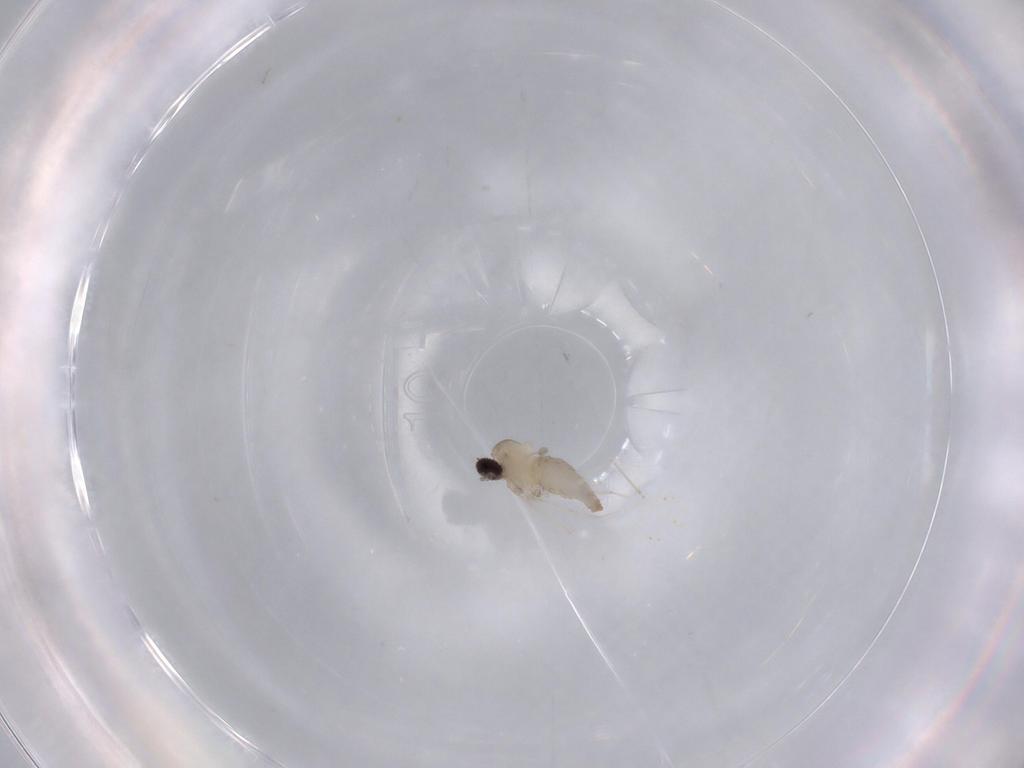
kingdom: Animalia
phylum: Arthropoda
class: Insecta
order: Diptera
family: Cecidomyiidae
